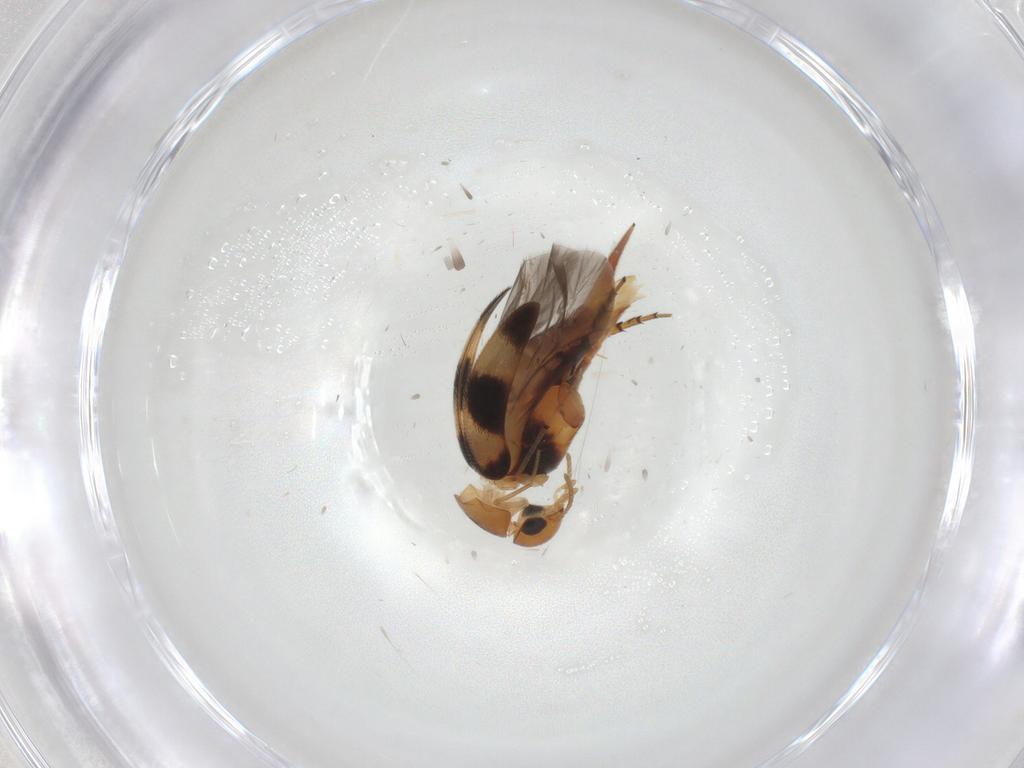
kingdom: Animalia
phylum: Arthropoda
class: Insecta
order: Coleoptera
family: Mordellidae
